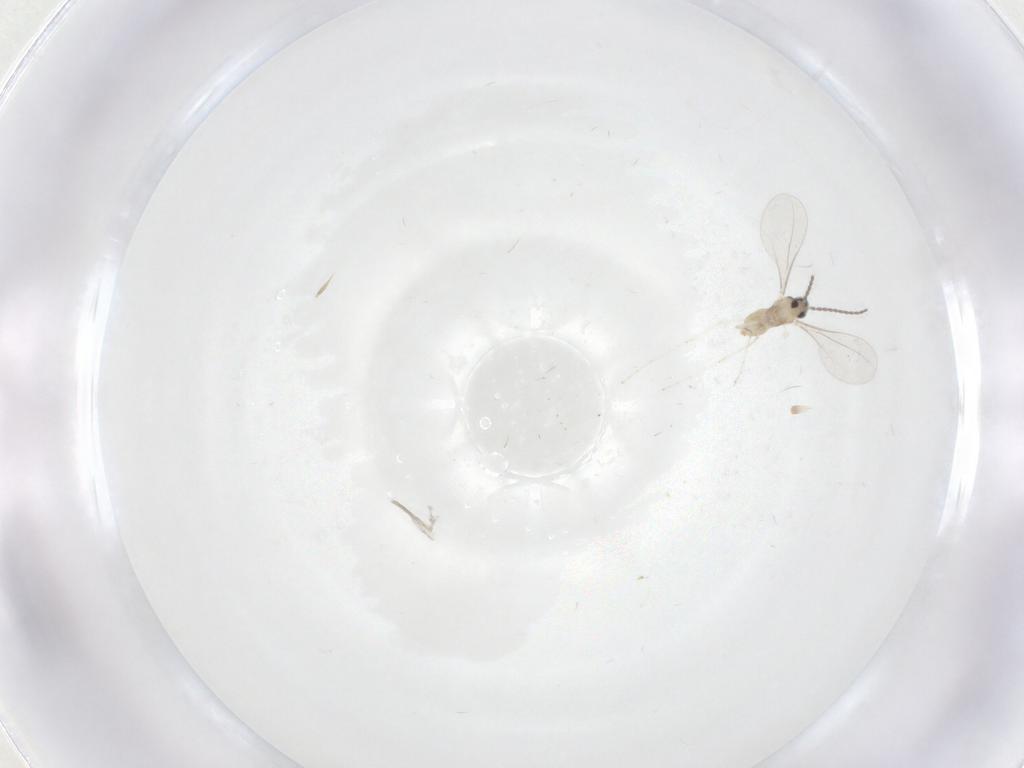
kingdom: Animalia
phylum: Arthropoda
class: Insecta
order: Diptera
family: Cecidomyiidae
